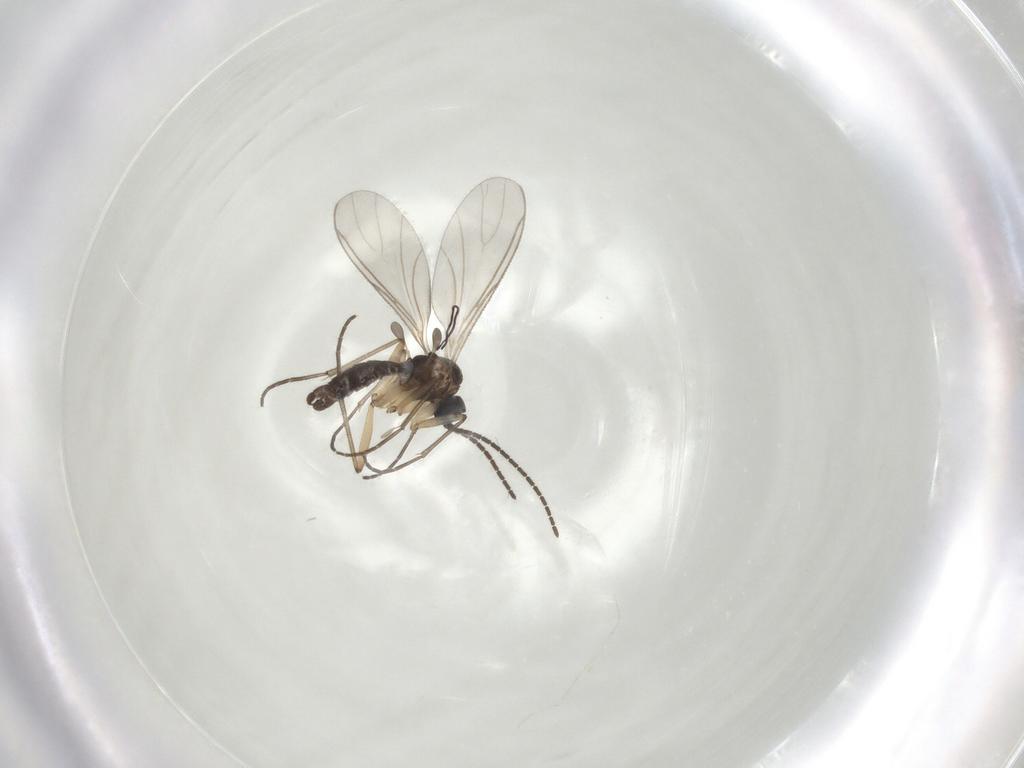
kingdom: Animalia
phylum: Arthropoda
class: Insecta
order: Diptera
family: Sciaridae
